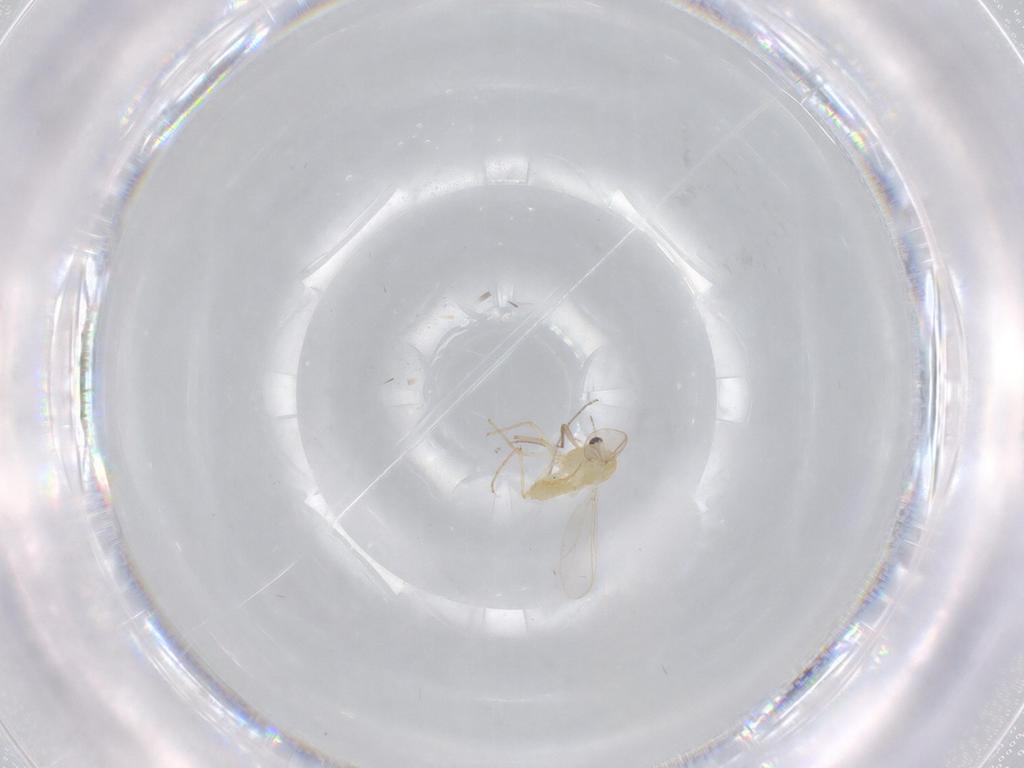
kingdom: Animalia
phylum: Arthropoda
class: Insecta
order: Diptera
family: Chironomidae
